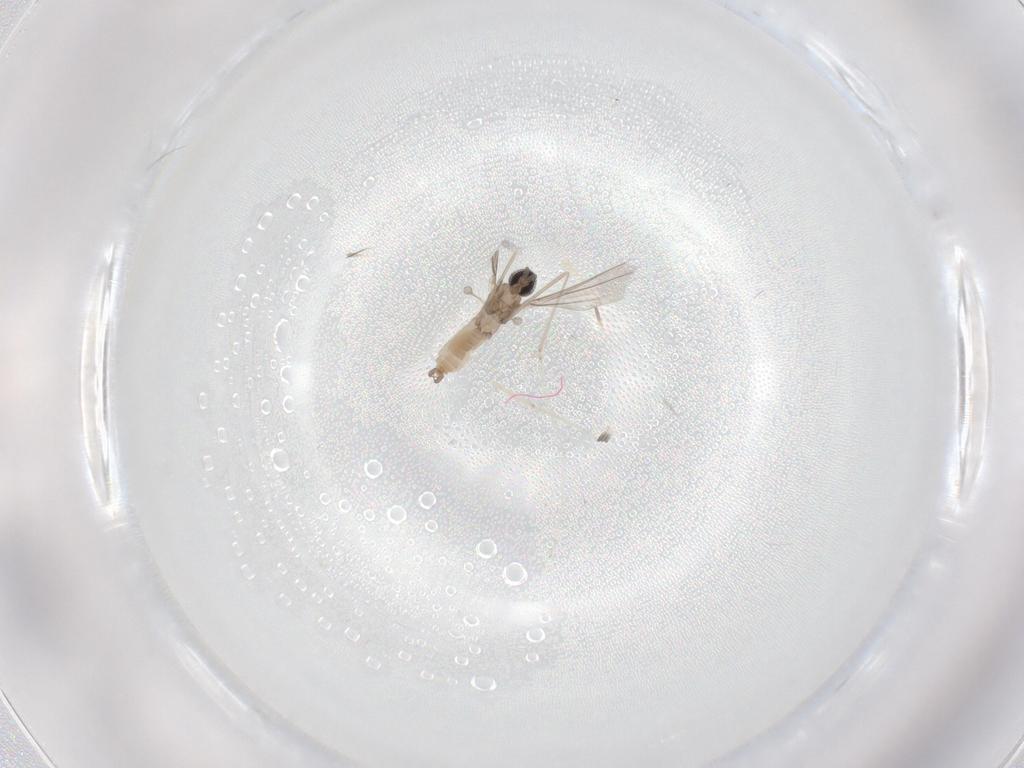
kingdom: Animalia
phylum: Arthropoda
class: Insecta
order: Diptera
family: Cecidomyiidae
